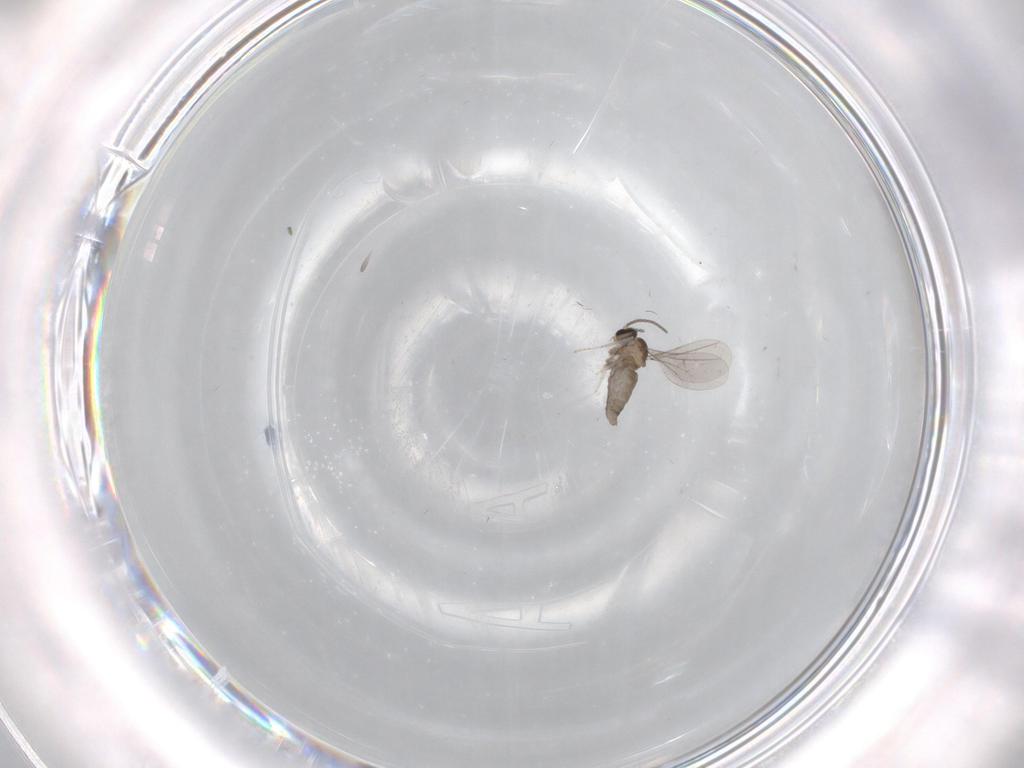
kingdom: Animalia
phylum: Arthropoda
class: Insecta
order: Diptera
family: Cecidomyiidae
